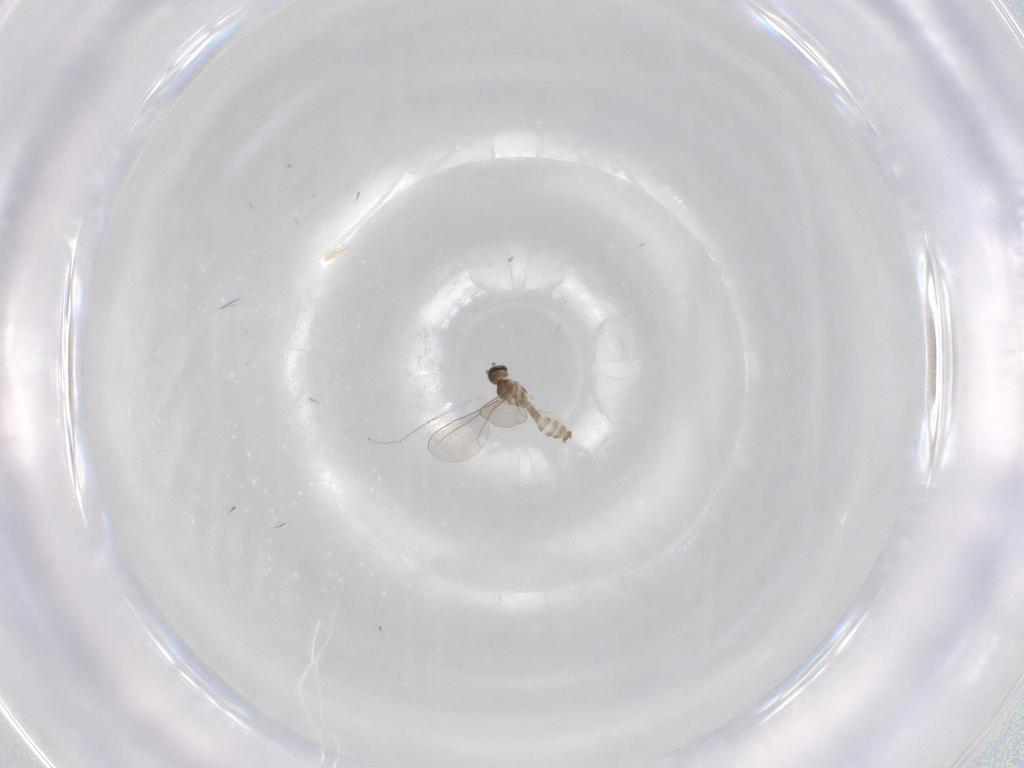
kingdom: Animalia
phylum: Arthropoda
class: Insecta
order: Diptera
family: Cecidomyiidae
